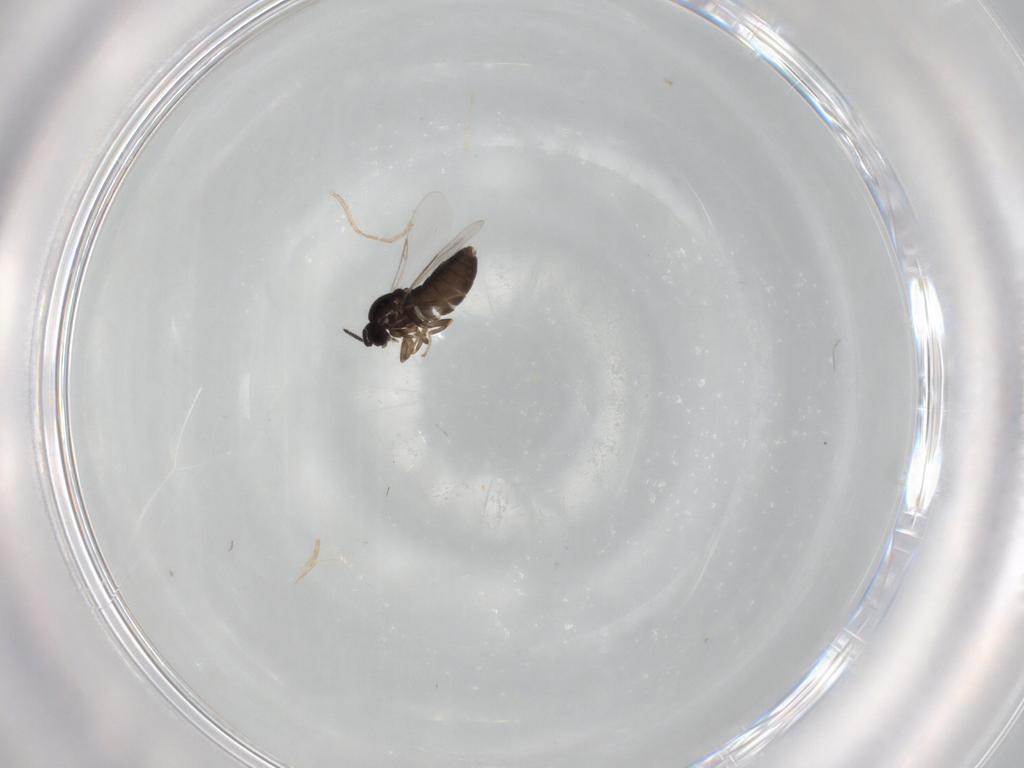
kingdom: Animalia
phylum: Arthropoda
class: Insecta
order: Diptera
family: Scatopsidae
